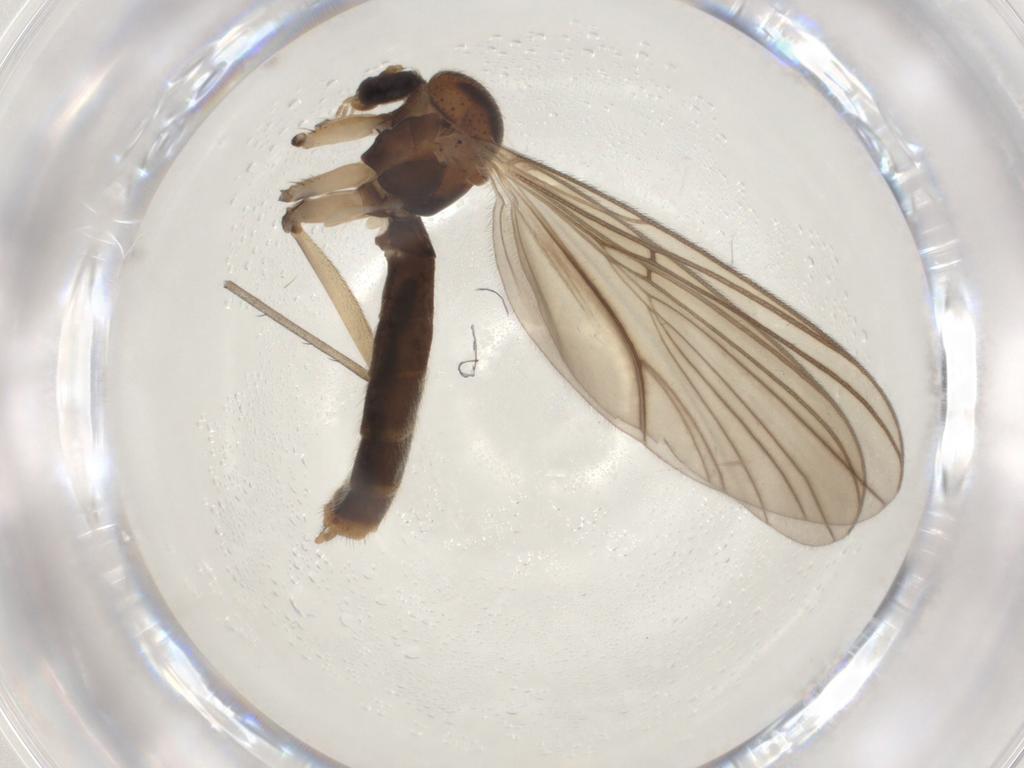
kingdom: Animalia
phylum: Arthropoda
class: Insecta
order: Diptera
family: Mycetophilidae
